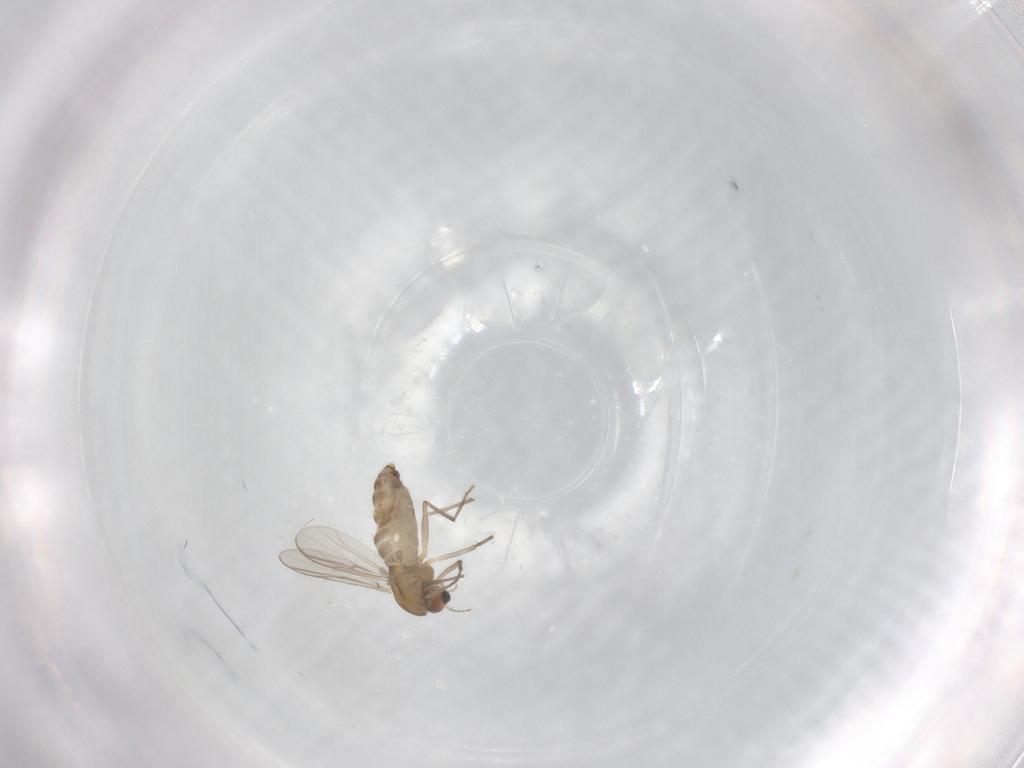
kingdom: Animalia
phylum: Arthropoda
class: Insecta
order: Diptera
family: Chironomidae
